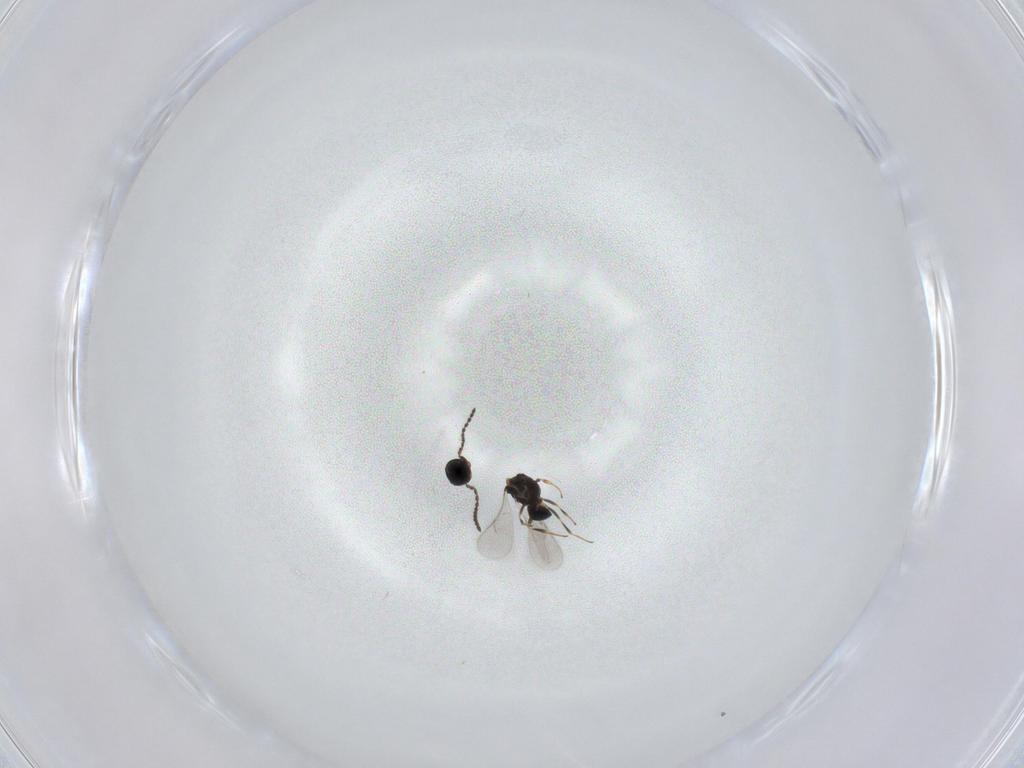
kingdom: Animalia
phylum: Arthropoda
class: Insecta
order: Hymenoptera
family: Scelionidae
